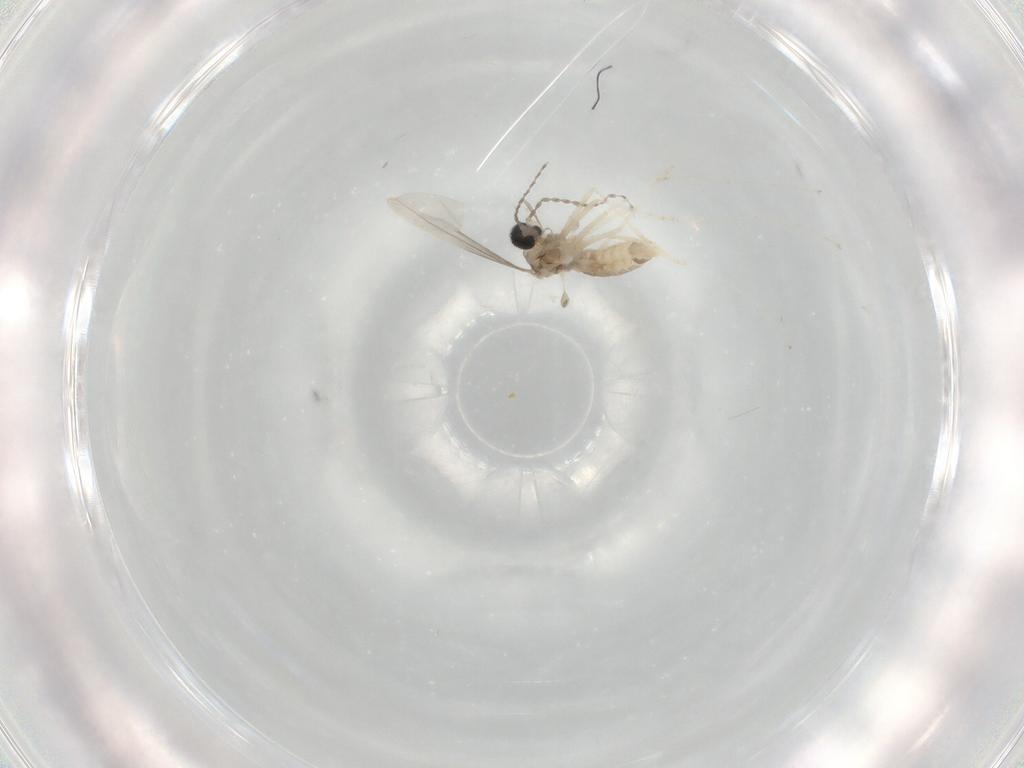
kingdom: Animalia
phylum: Arthropoda
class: Insecta
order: Diptera
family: Cecidomyiidae
